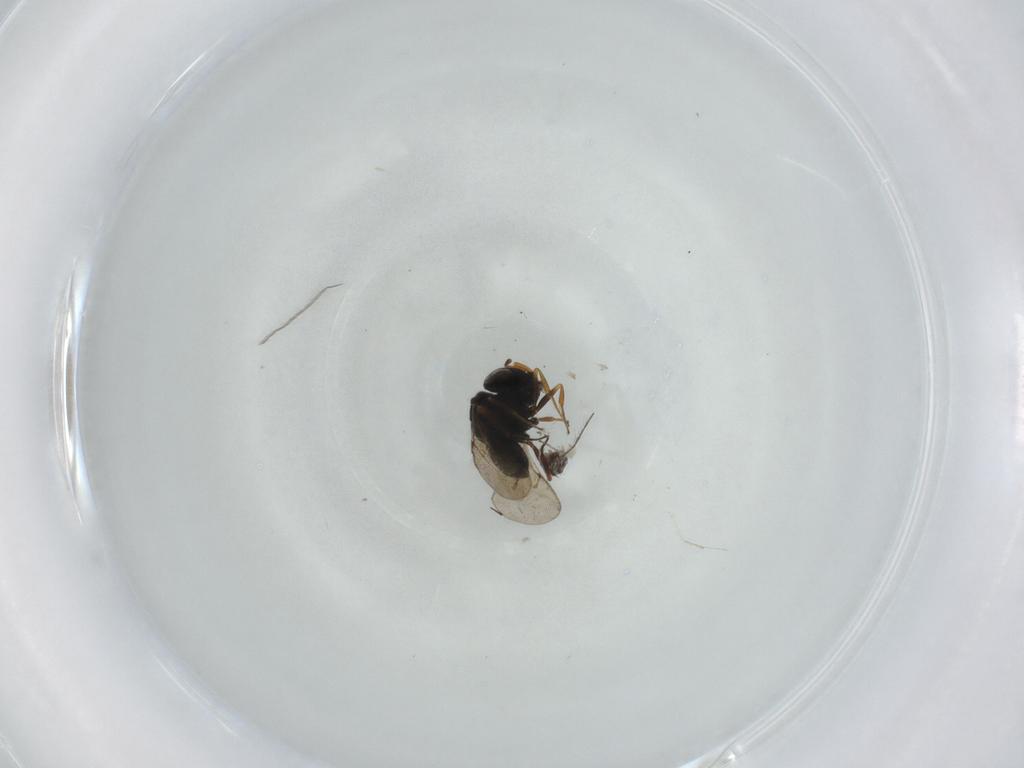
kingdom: Animalia
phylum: Arthropoda
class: Insecta
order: Hymenoptera
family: Eulophidae
